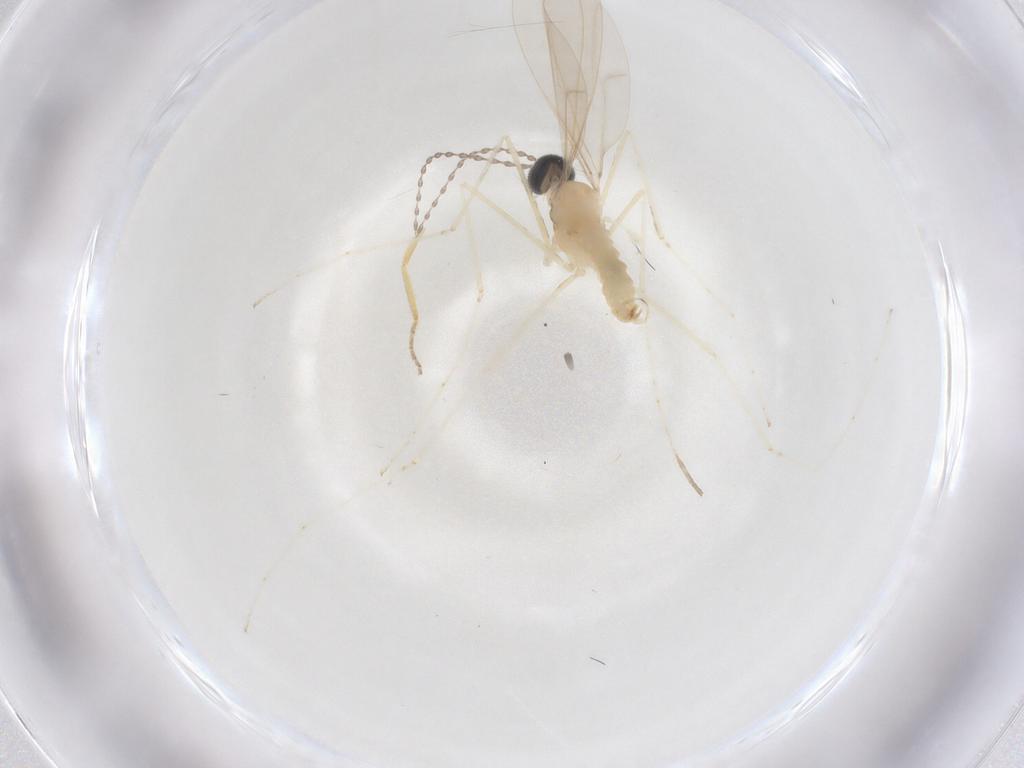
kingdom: Animalia
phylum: Arthropoda
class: Insecta
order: Diptera
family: Cecidomyiidae
